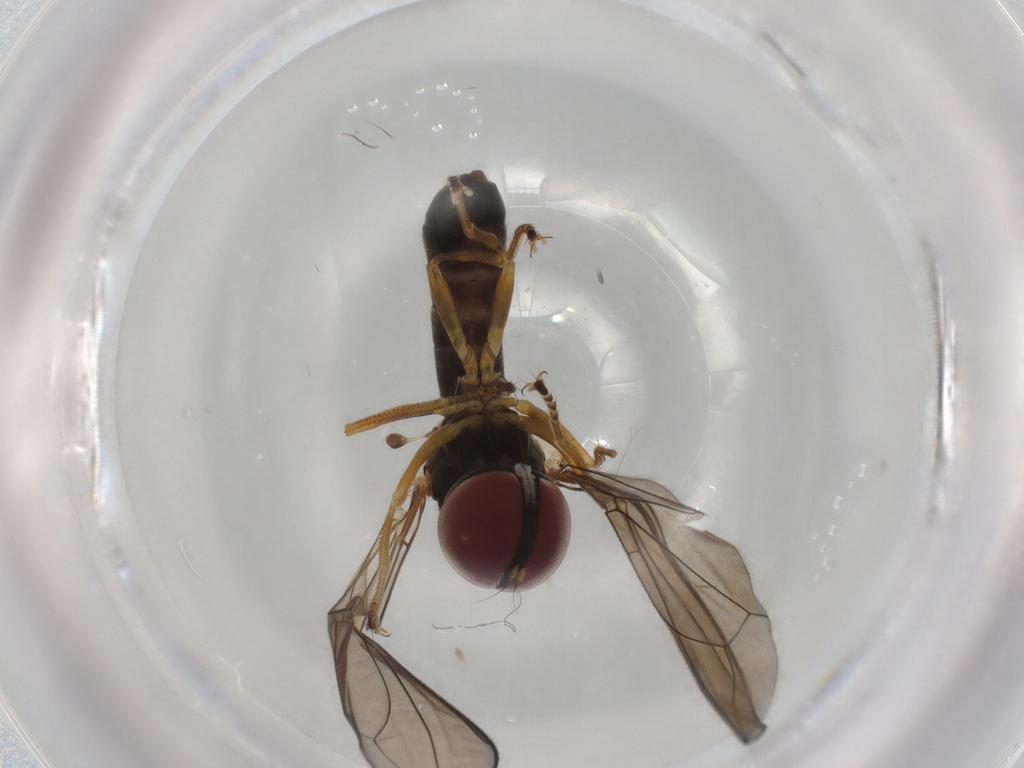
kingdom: Animalia
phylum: Arthropoda
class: Insecta
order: Diptera
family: Pipunculidae
